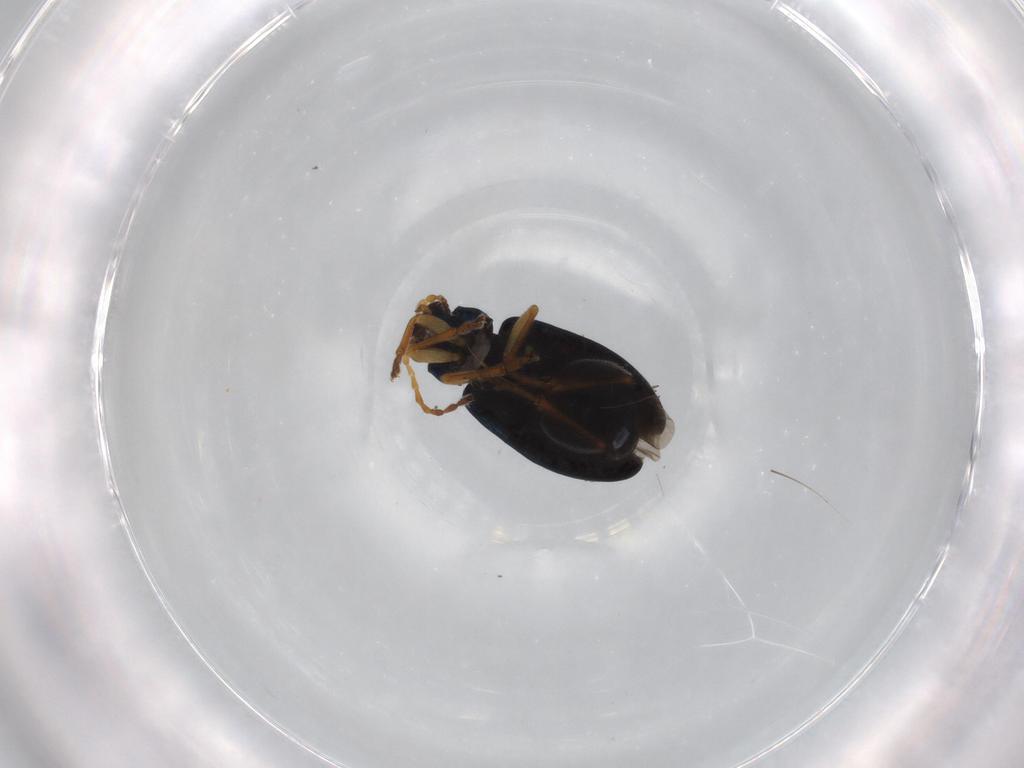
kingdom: Animalia
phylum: Arthropoda
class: Insecta
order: Coleoptera
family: Chrysomelidae
